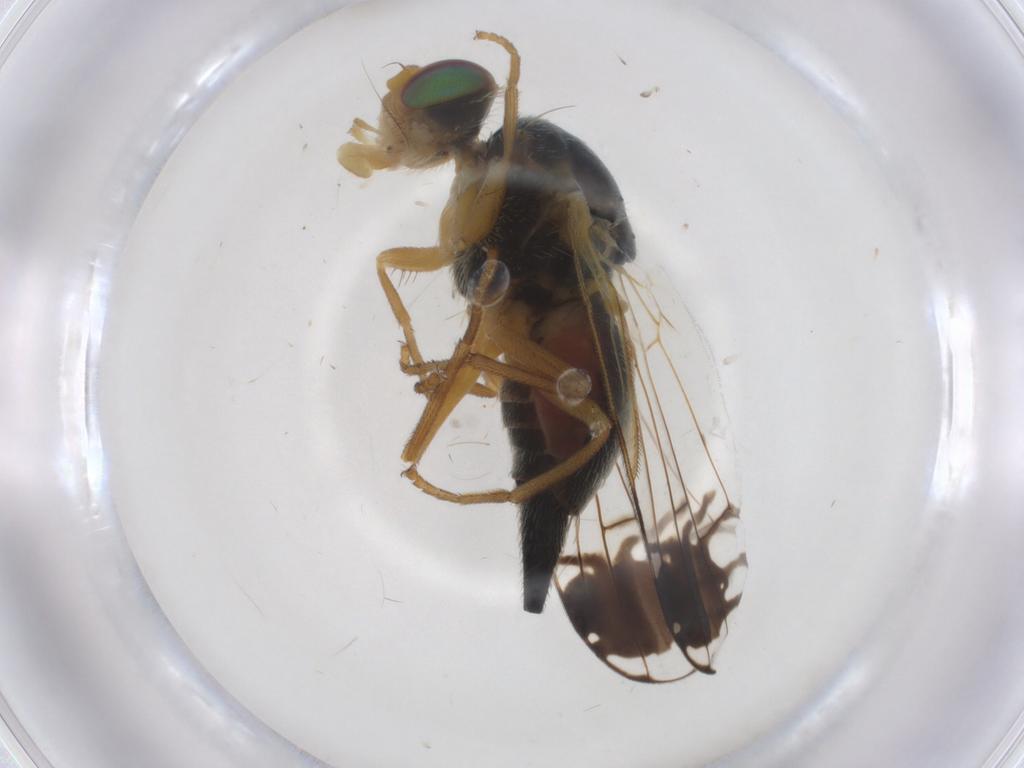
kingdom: Animalia
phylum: Arthropoda
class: Insecta
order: Diptera
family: Tephritidae
